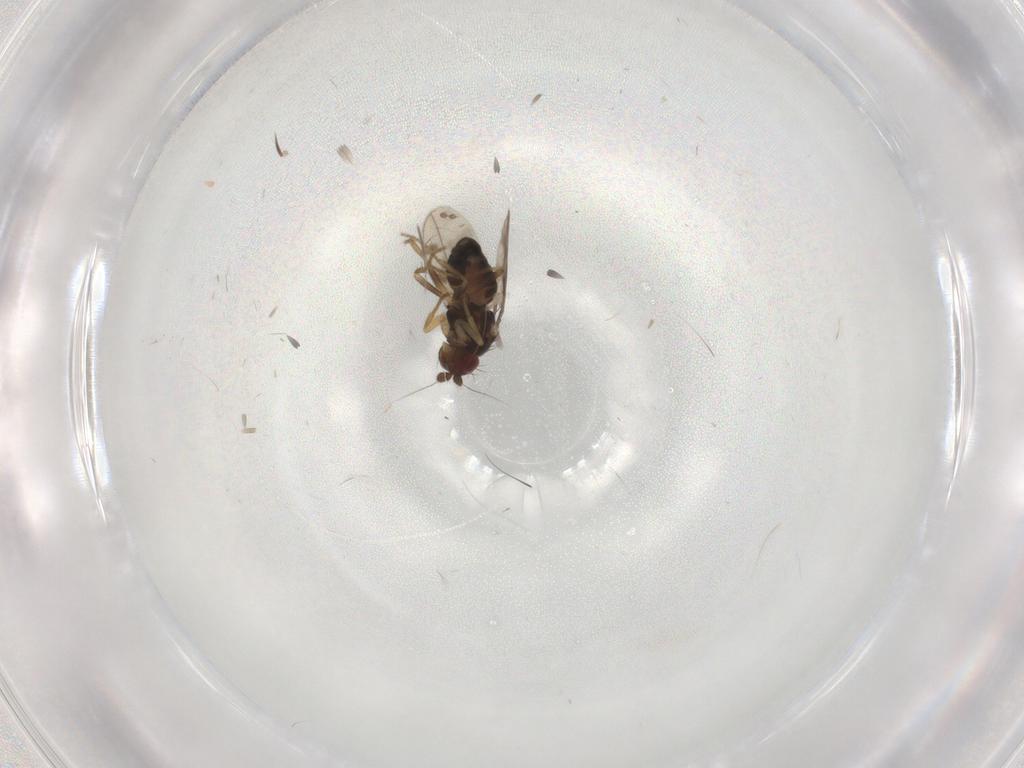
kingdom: Animalia
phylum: Arthropoda
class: Insecta
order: Diptera
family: Sphaeroceridae
